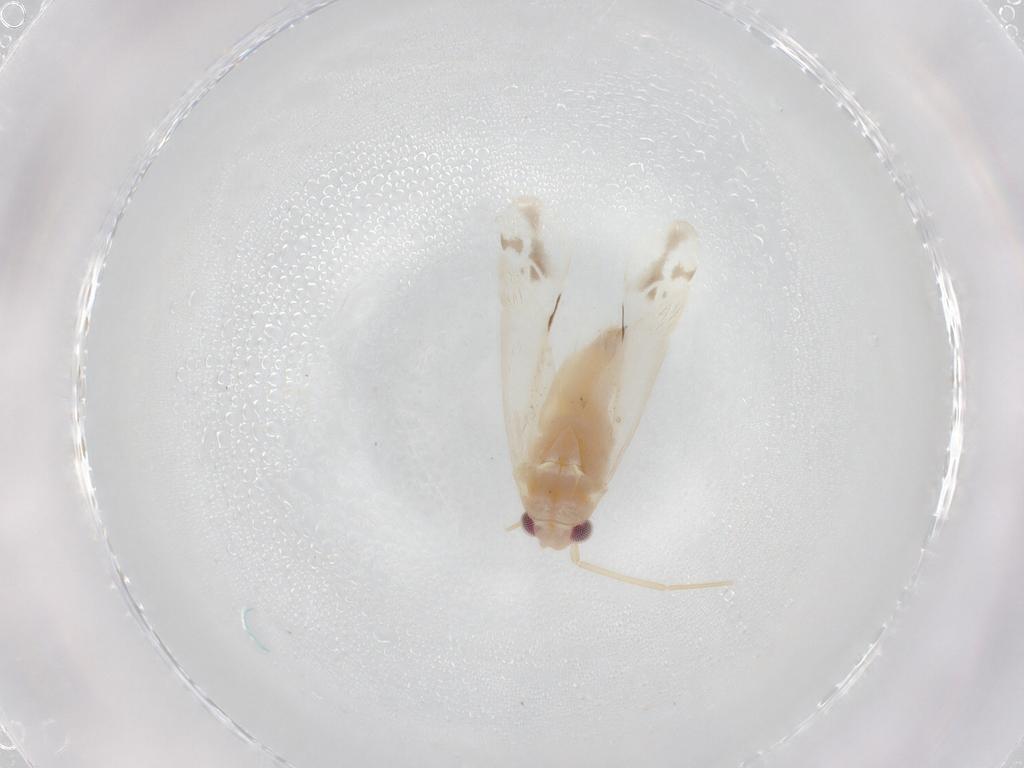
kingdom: Animalia
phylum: Arthropoda
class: Insecta
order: Hemiptera
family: Miridae
